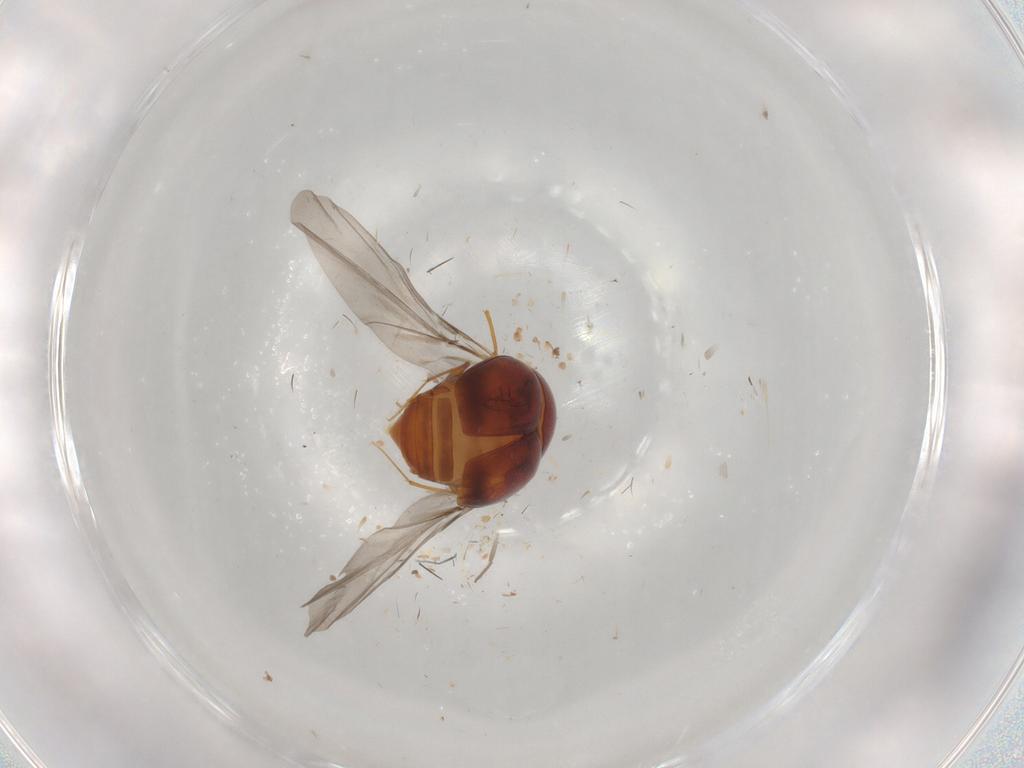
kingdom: Animalia
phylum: Arthropoda
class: Insecta
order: Coleoptera
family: Staphylinidae
